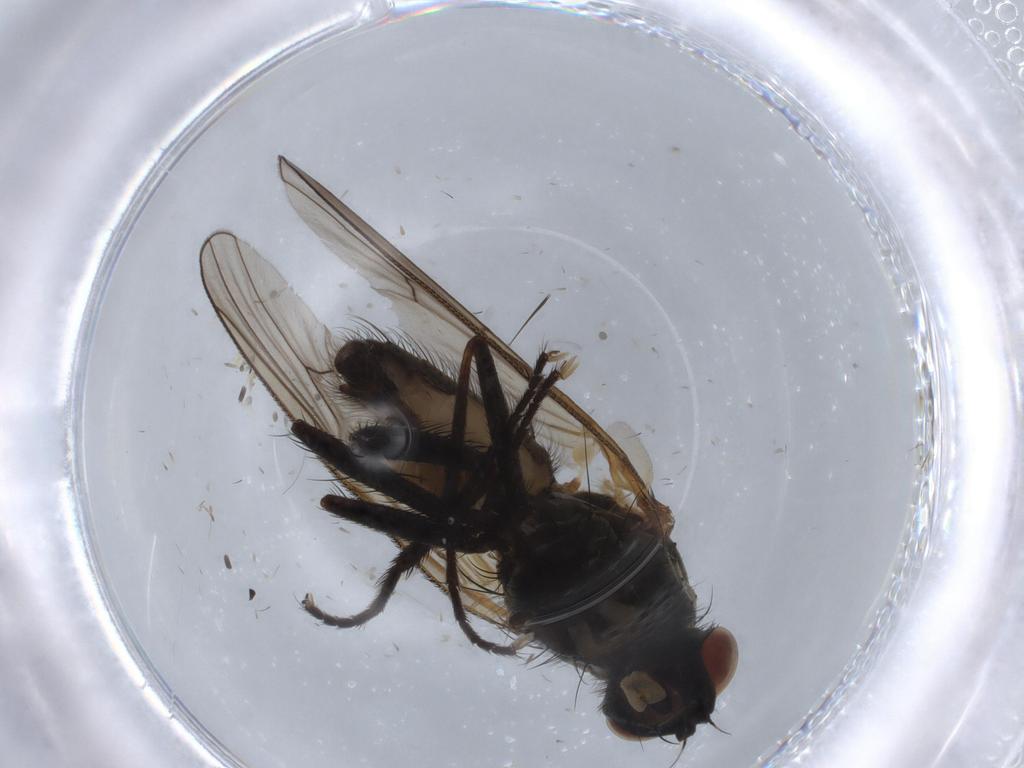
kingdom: Animalia
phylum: Arthropoda
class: Insecta
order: Diptera
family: Anthomyiidae
